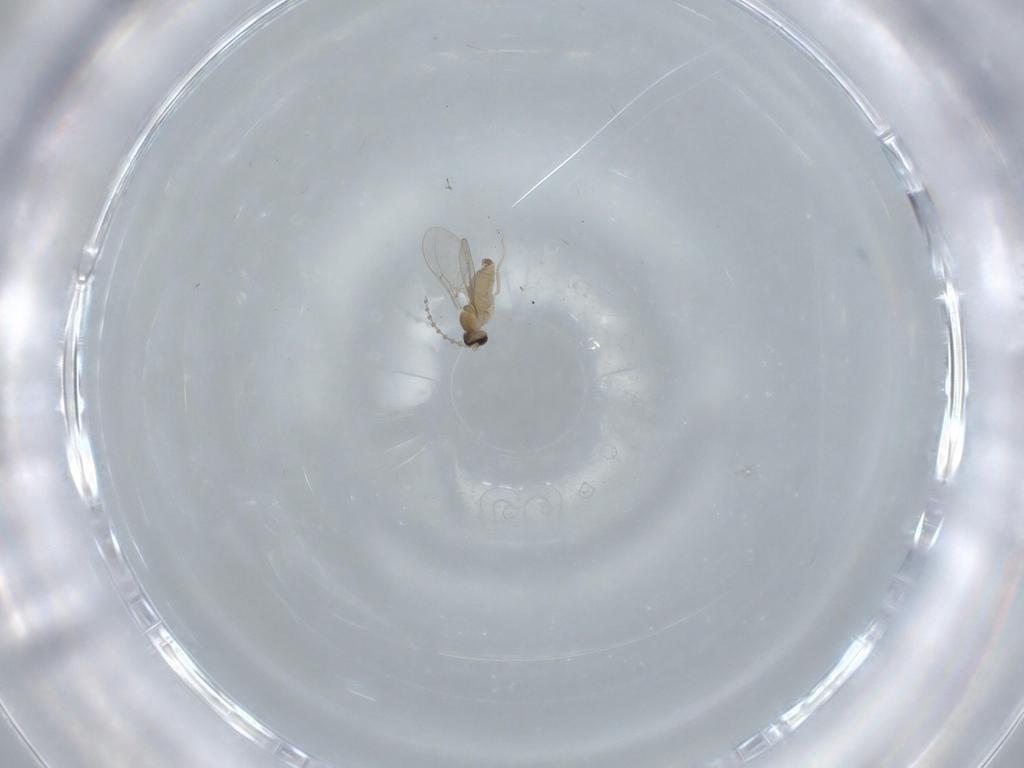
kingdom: Animalia
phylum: Arthropoda
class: Insecta
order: Diptera
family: Cecidomyiidae
